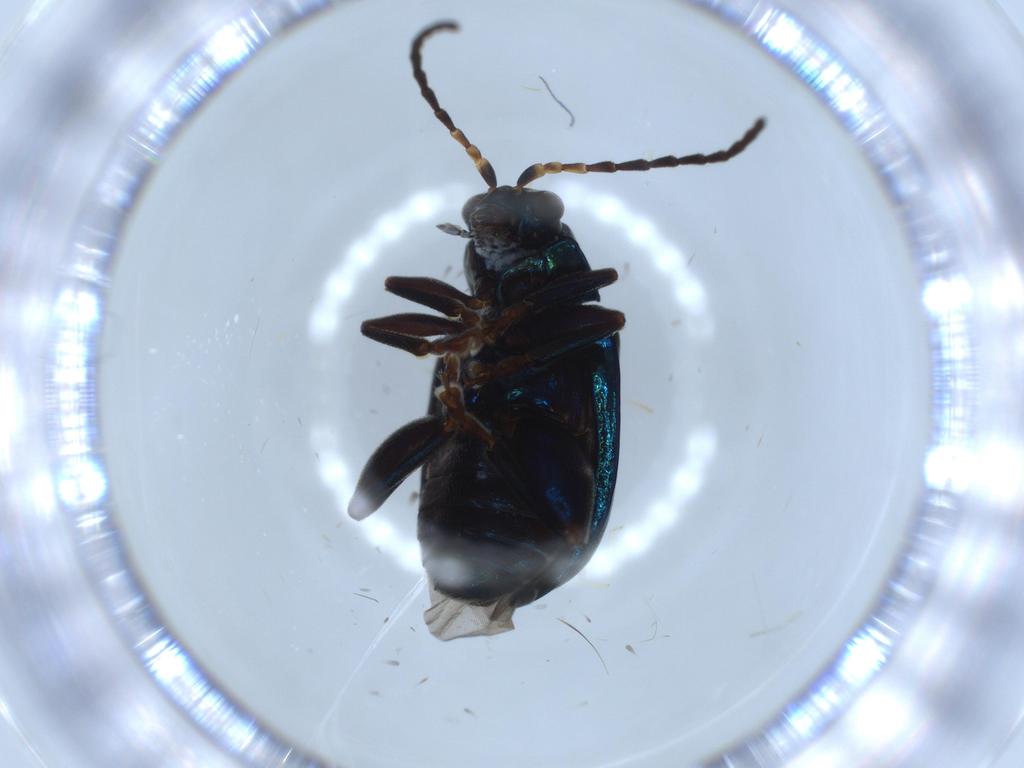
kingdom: Animalia
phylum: Arthropoda
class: Insecta
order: Coleoptera
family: Chrysomelidae
